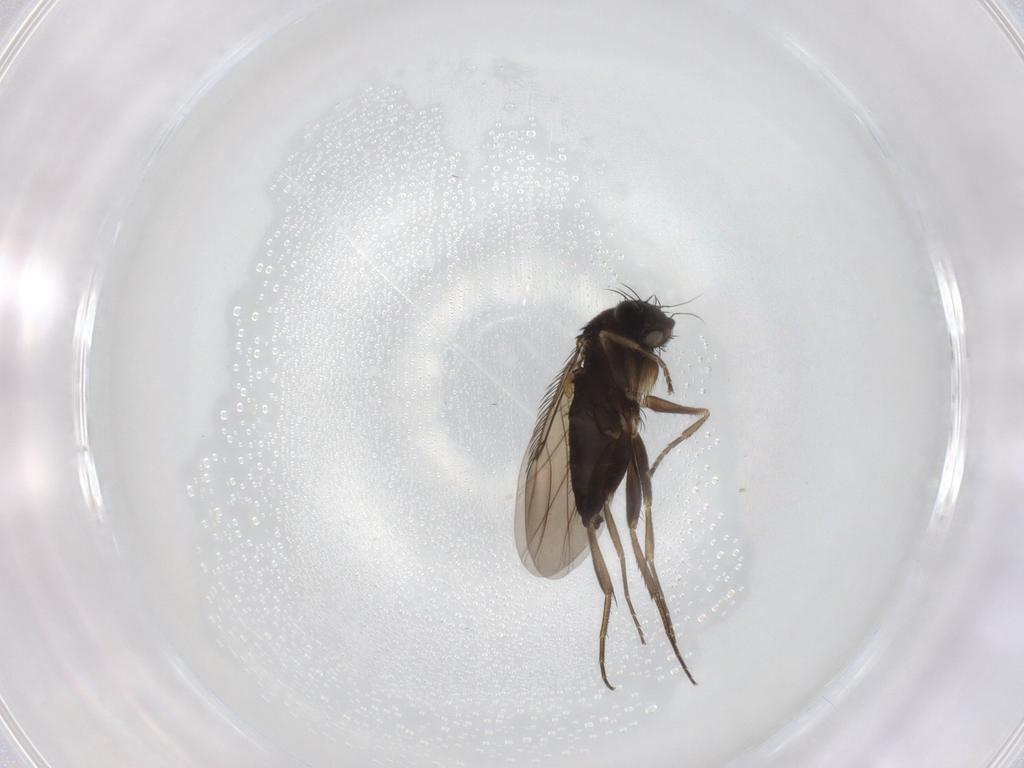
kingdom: Animalia
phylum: Arthropoda
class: Insecta
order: Diptera
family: Phoridae
